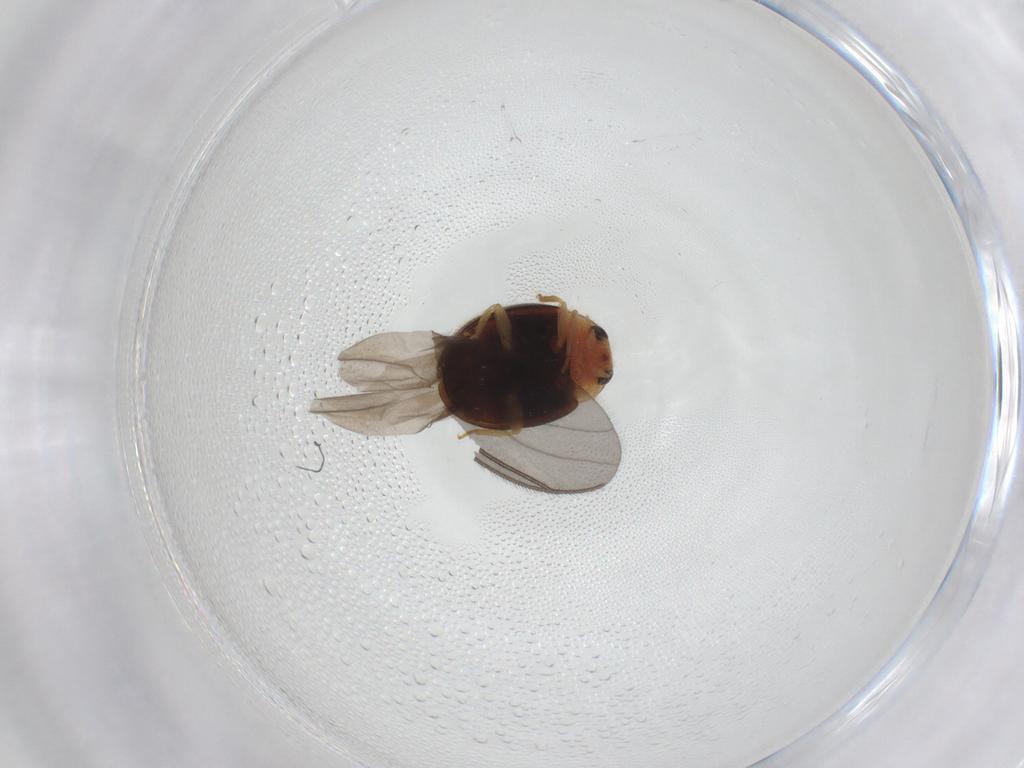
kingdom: Animalia
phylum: Arthropoda
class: Insecta
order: Coleoptera
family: Coccinellidae
